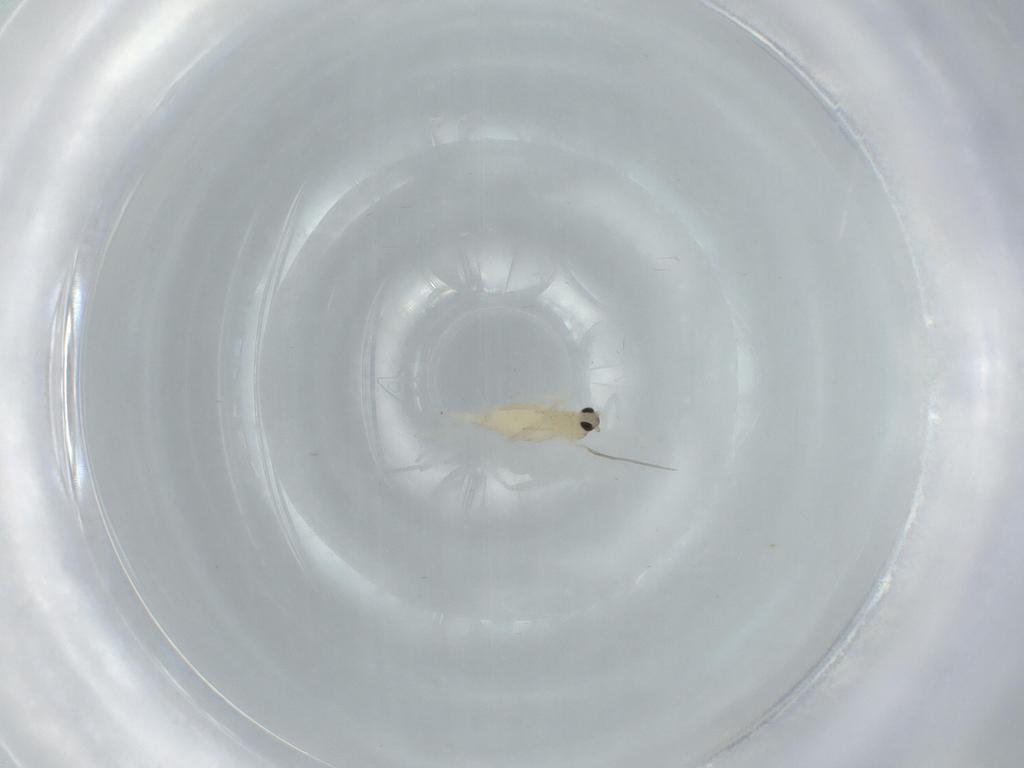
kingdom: Animalia
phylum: Arthropoda
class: Insecta
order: Diptera
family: Cecidomyiidae
